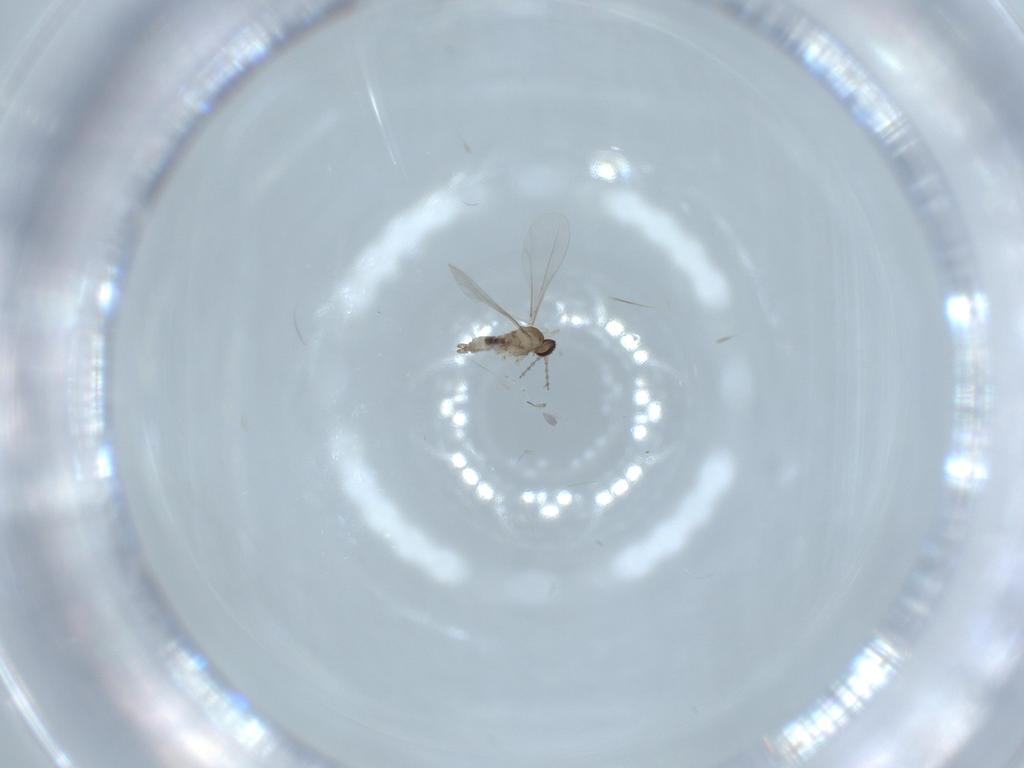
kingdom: Animalia
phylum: Arthropoda
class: Insecta
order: Diptera
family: Cecidomyiidae
